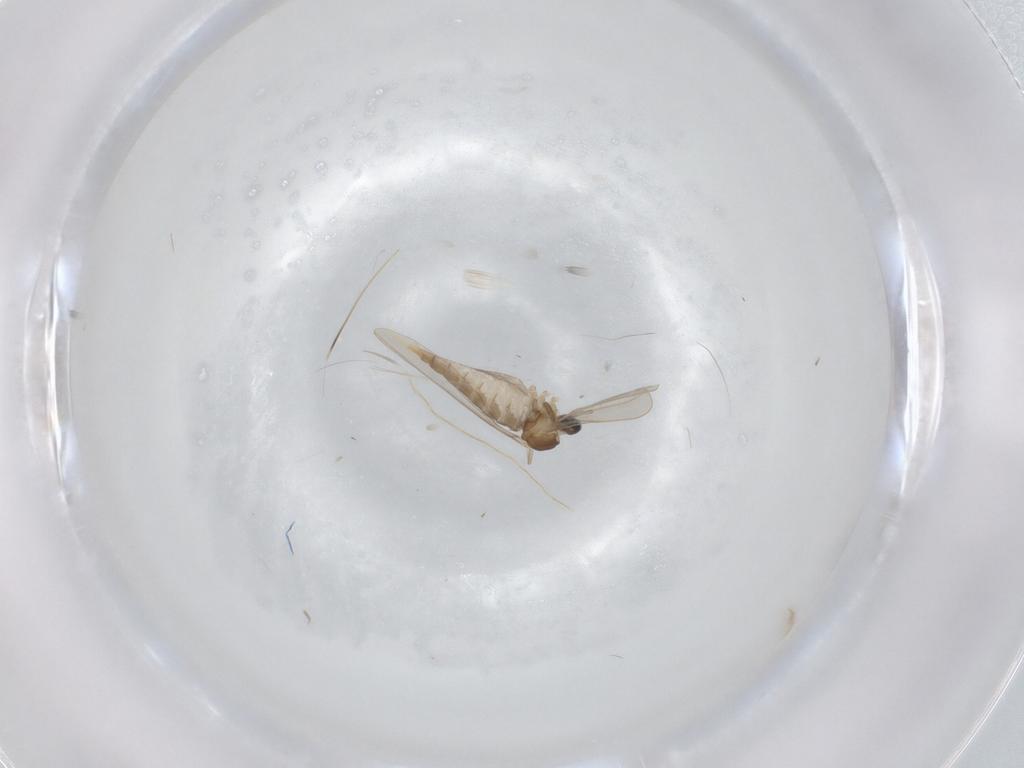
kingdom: Animalia
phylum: Arthropoda
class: Insecta
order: Diptera
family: Cecidomyiidae
